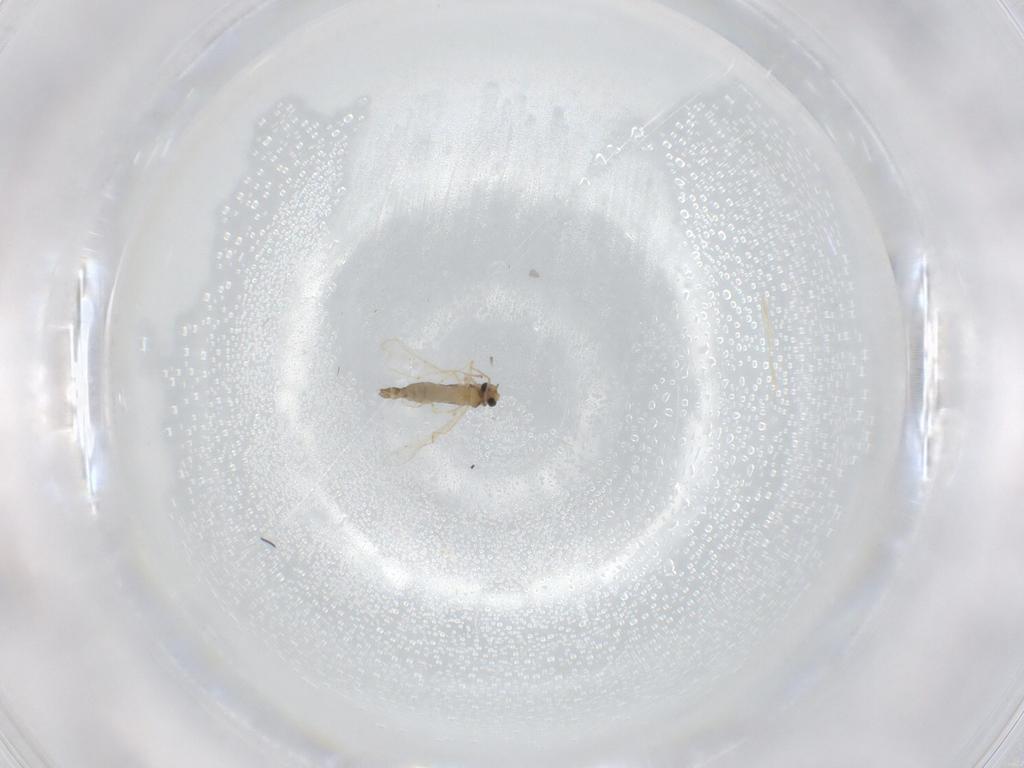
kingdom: Animalia
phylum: Arthropoda
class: Insecta
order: Diptera
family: Chironomidae
